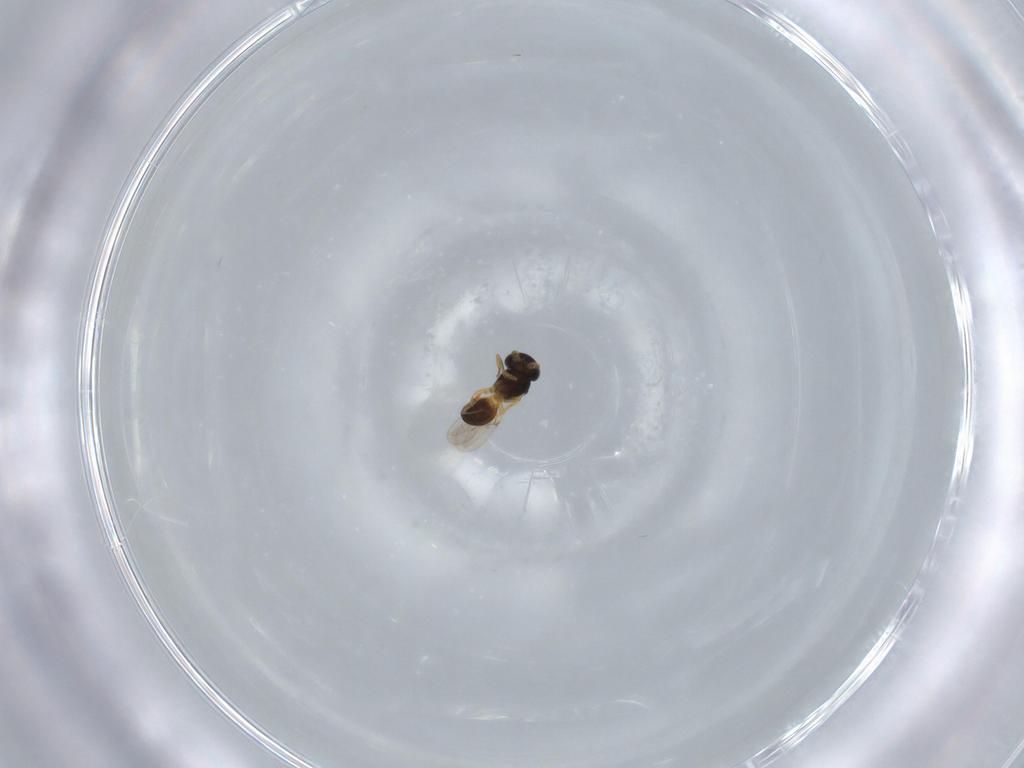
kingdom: Animalia
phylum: Arthropoda
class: Insecta
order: Hymenoptera
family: Scelionidae
